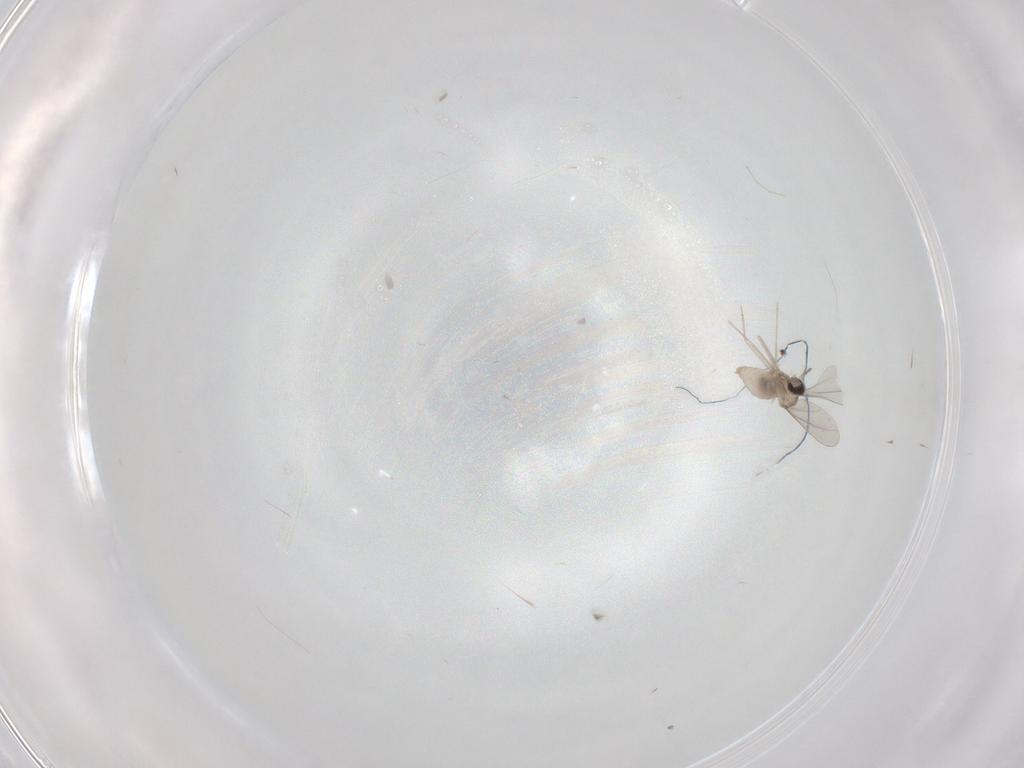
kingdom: Animalia
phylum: Arthropoda
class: Insecta
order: Diptera
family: Cecidomyiidae
